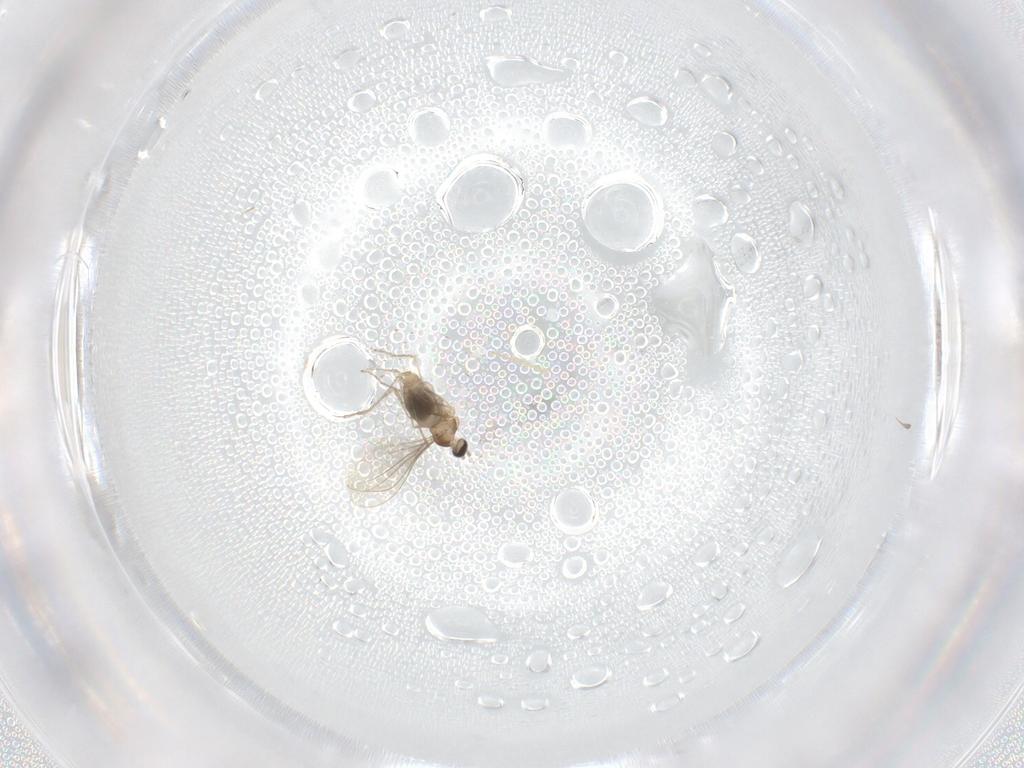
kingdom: Animalia
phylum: Arthropoda
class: Insecta
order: Diptera
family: Cecidomyiidae
